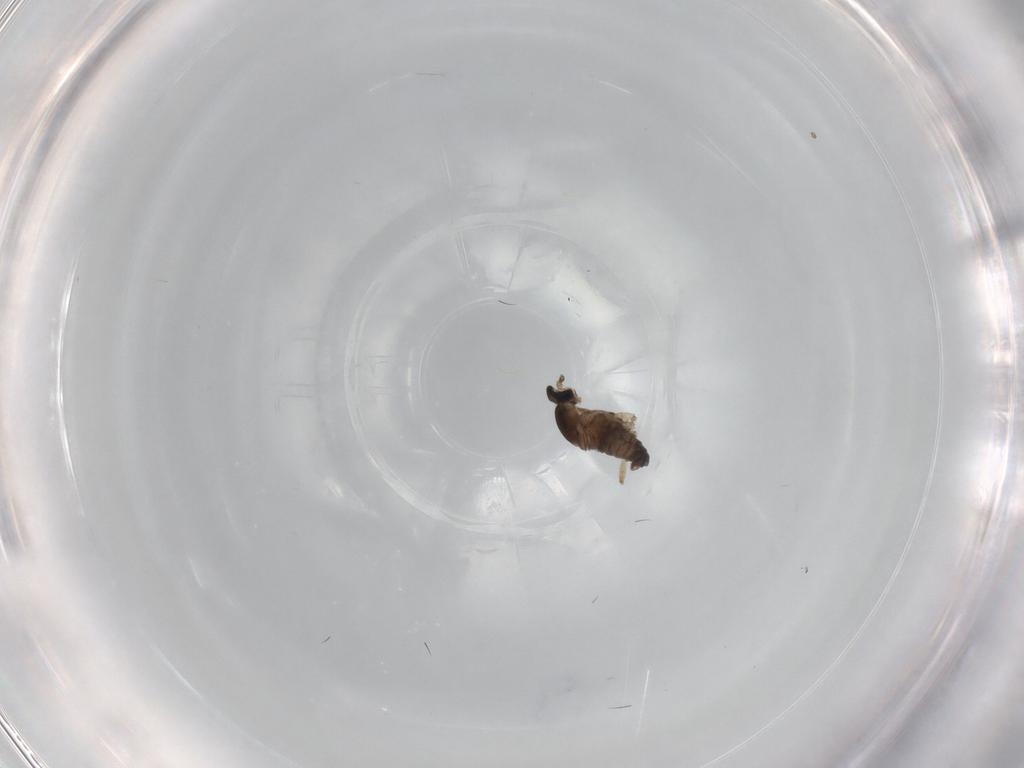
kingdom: Animalia
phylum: Arthropoda
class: Insecta
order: Diptera
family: Cecidomyiidae
